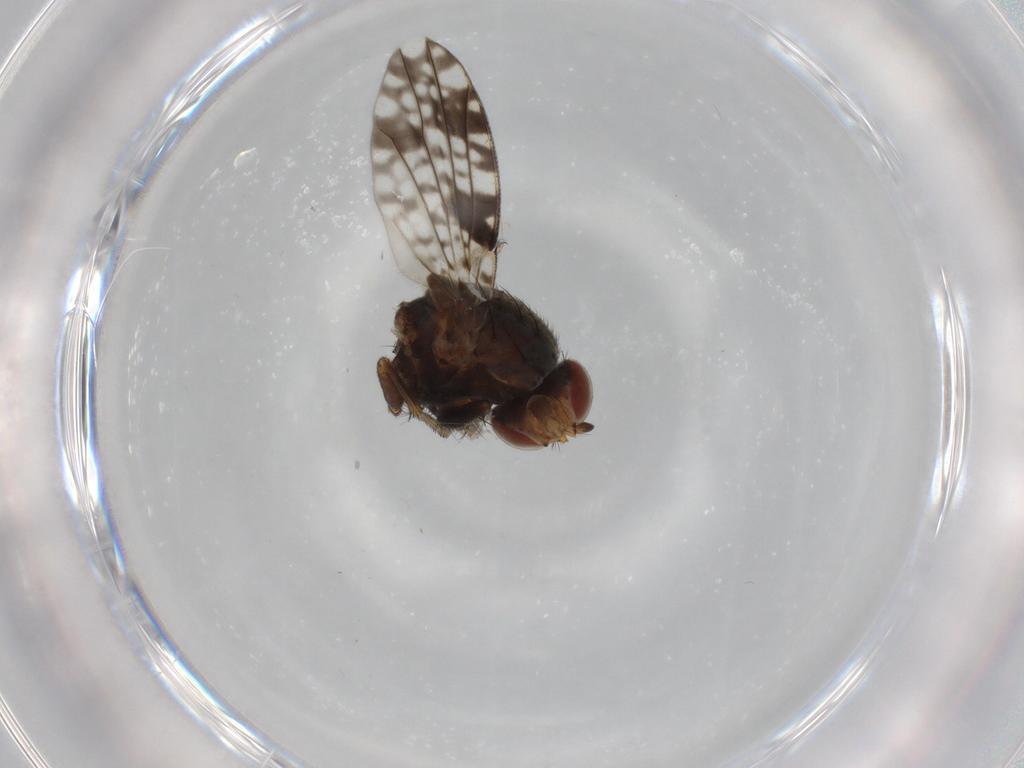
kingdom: Animalia
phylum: Arthropoda
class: Insecta
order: Diptera
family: Tephritidae
